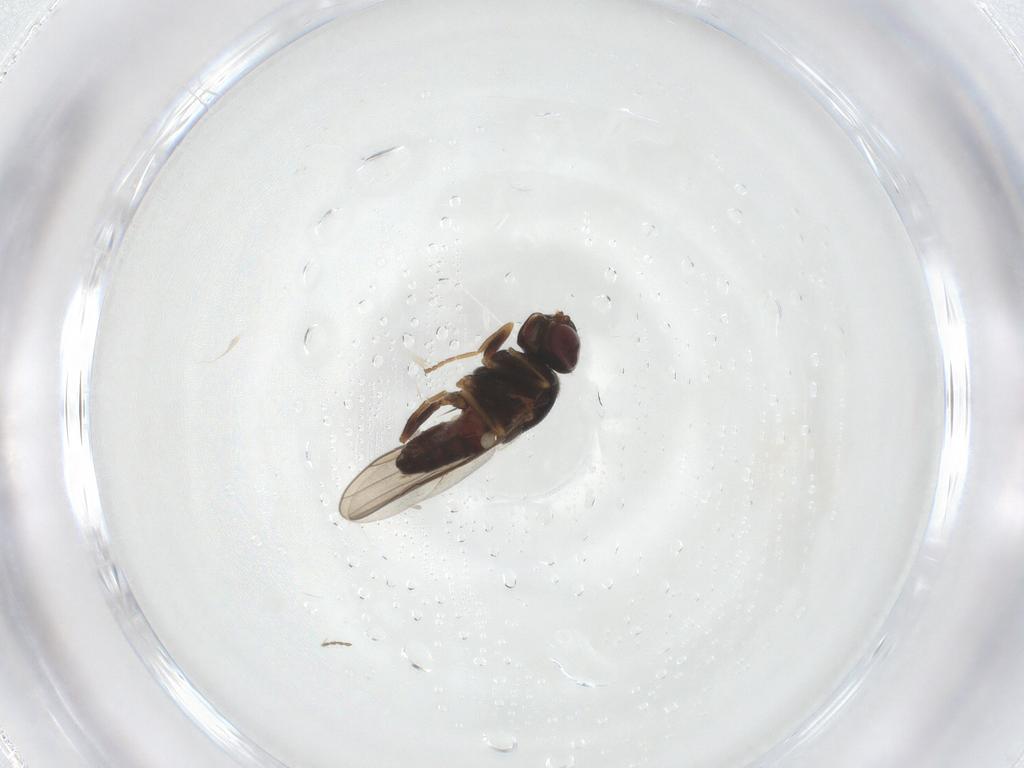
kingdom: Animalia
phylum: Arthropoda
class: Insecta
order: Diptera
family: Chloropidae
